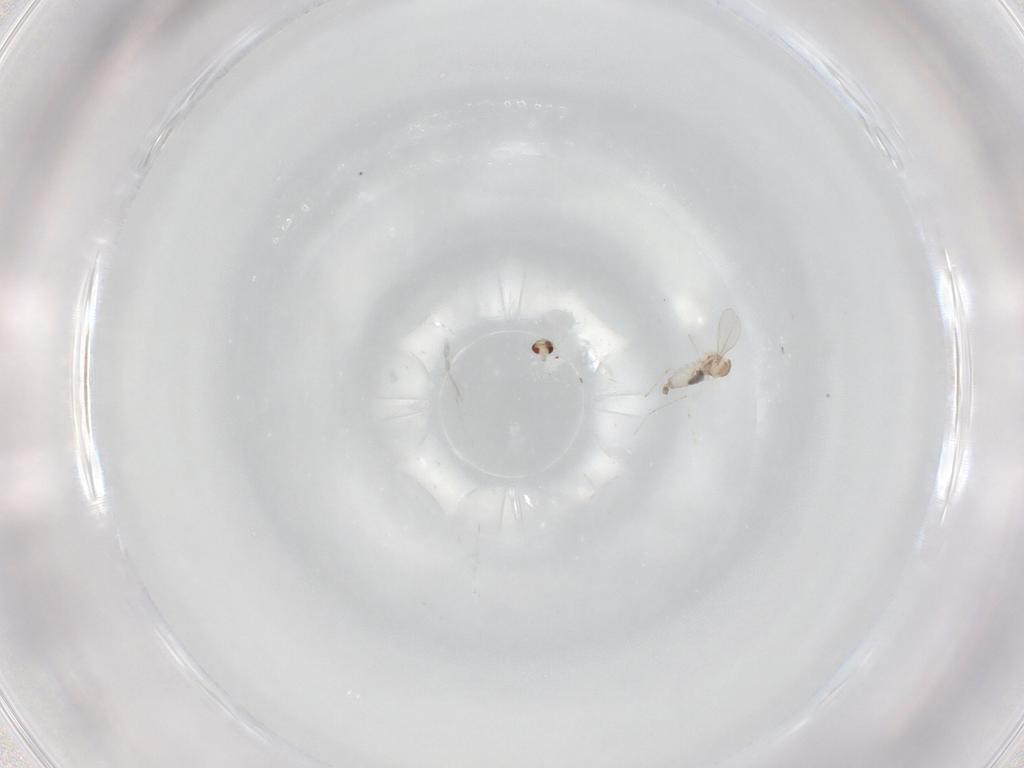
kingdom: Animalia
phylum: Arthropoda
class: Insecta
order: Diptera
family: Cecidomyiidae
